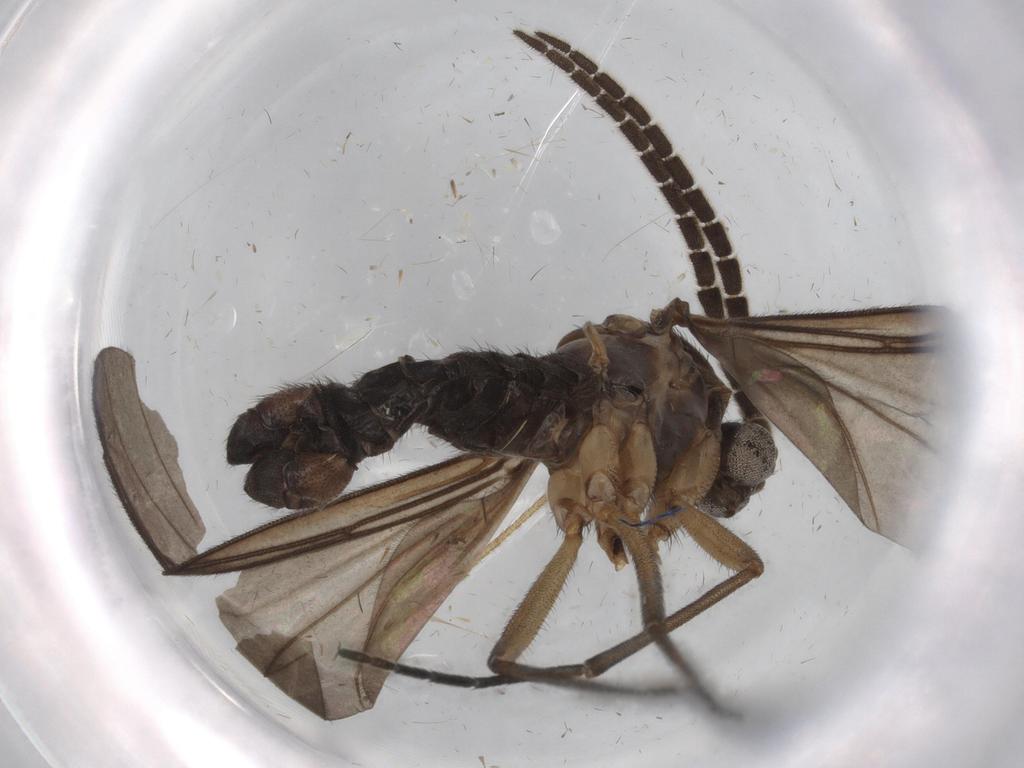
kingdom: Animalia
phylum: Arthropoda
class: Insecta
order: Diptera
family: Chironomidae
